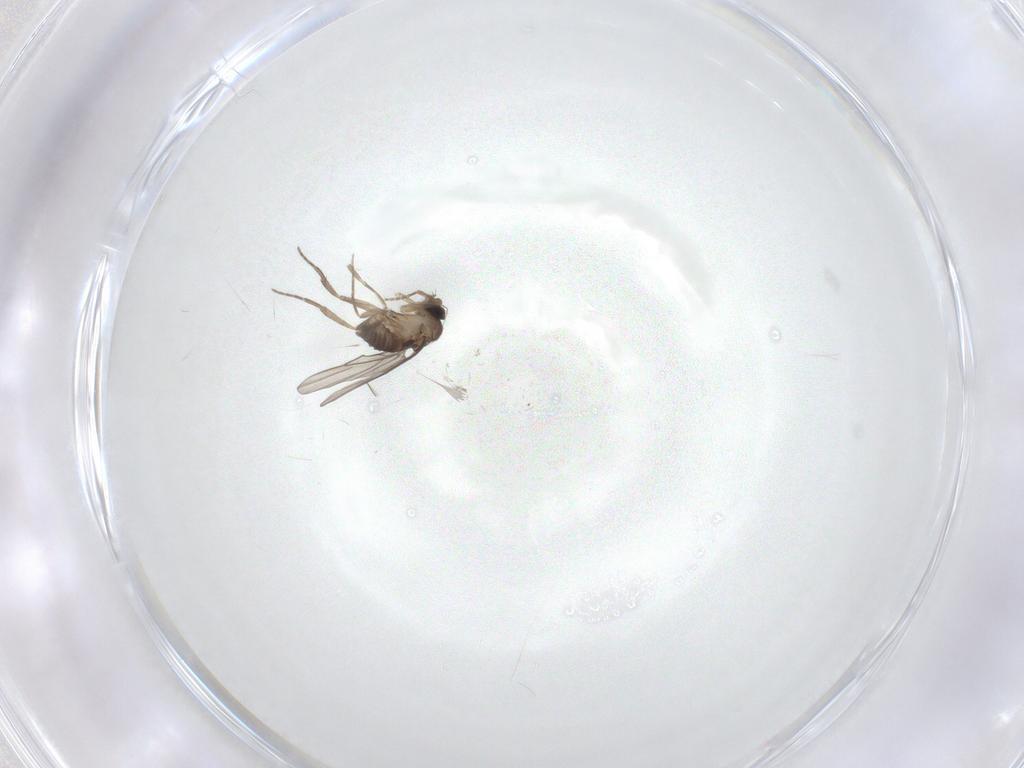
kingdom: Animalia
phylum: Arthropoda
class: Insecta
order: Diptera
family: Phoridae
